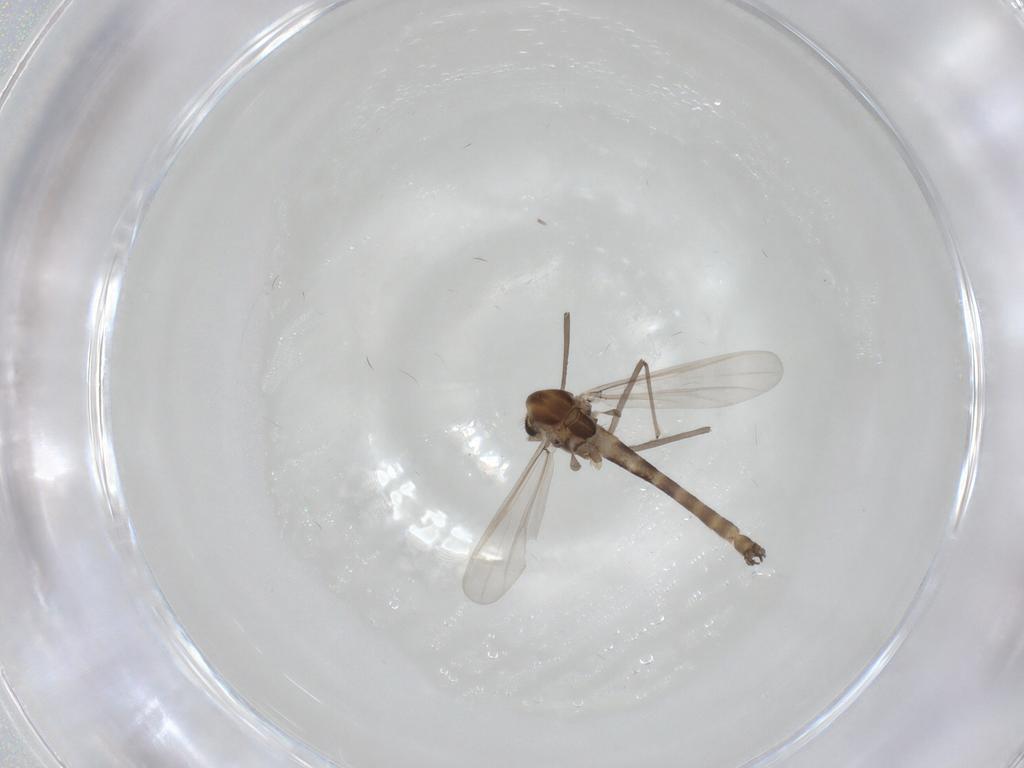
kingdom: Animalia
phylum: Arthropoda
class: Insecta
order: Diptera
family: Chironomidae
